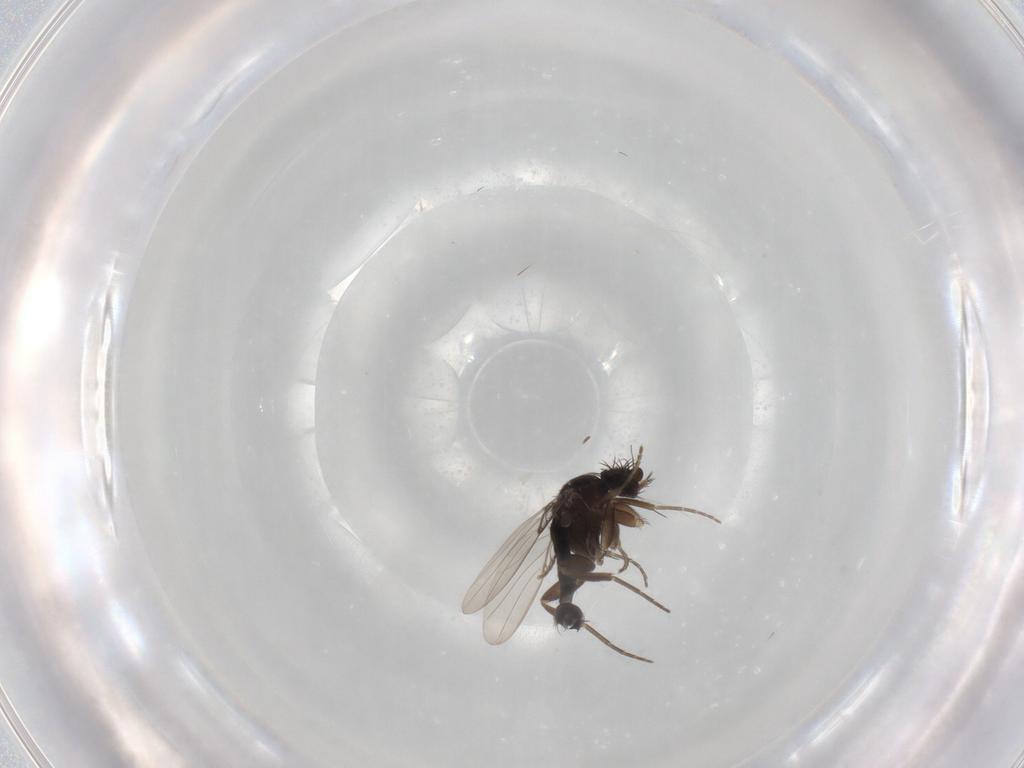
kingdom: Animalia
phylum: Arthropoda
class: Insecta
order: Diptera
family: Phoridae
